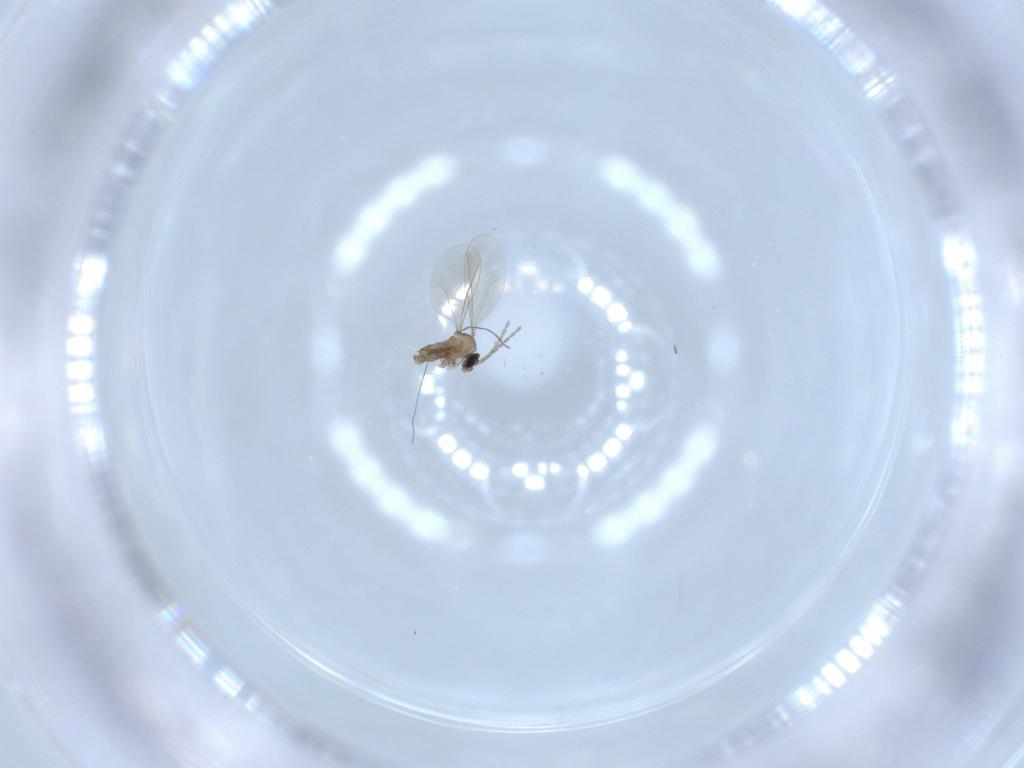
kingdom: Animalia
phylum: Arthropoda
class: Insecta
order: Diptera
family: Cecidomyiidae
